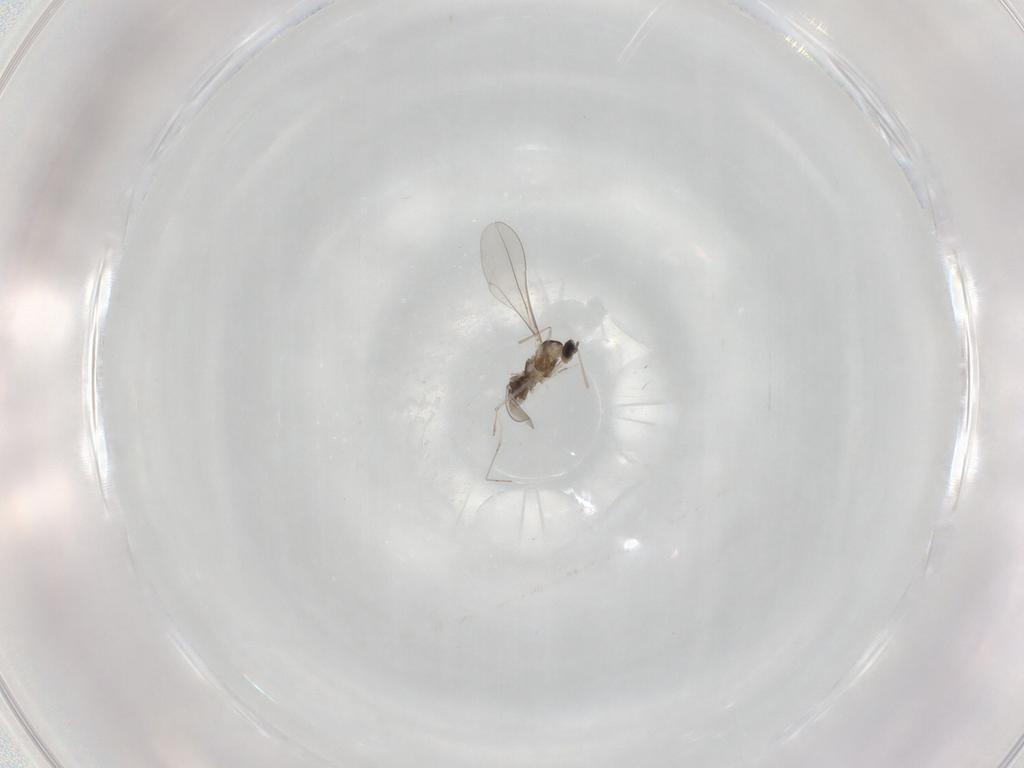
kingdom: Animalia
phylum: Arthropoda
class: Insecta
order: Diptera
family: Cecidomyiidae
